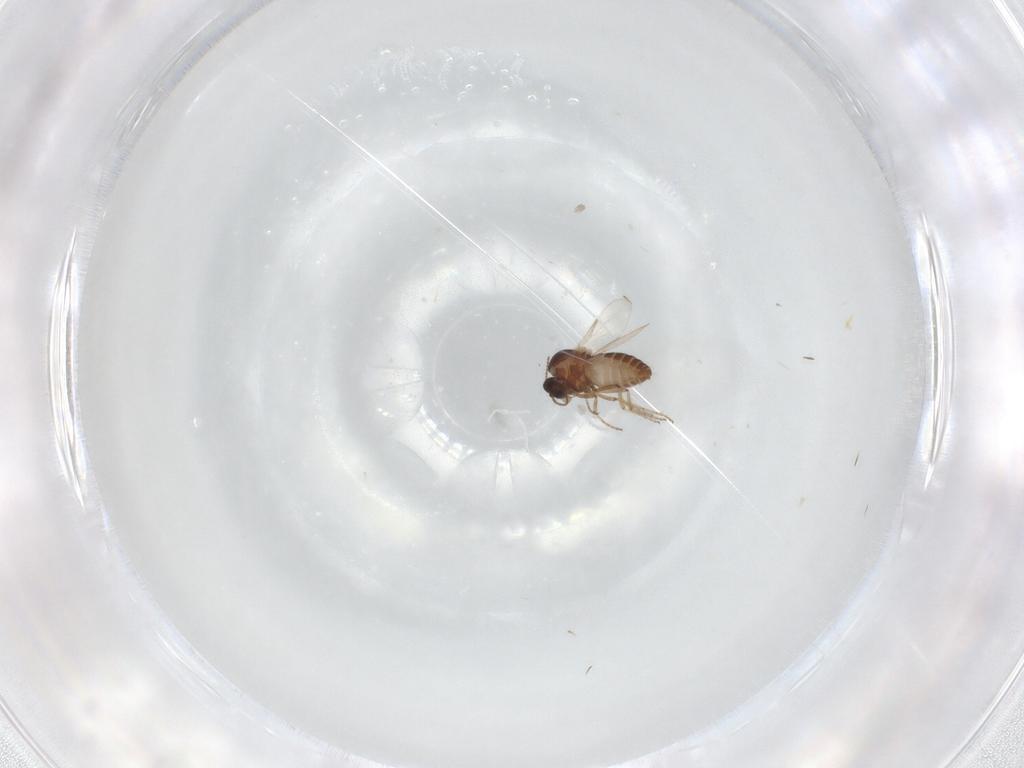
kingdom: Animalia
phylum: Arthropoda
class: Insecta
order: Diptera
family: Ceratopogonidae
